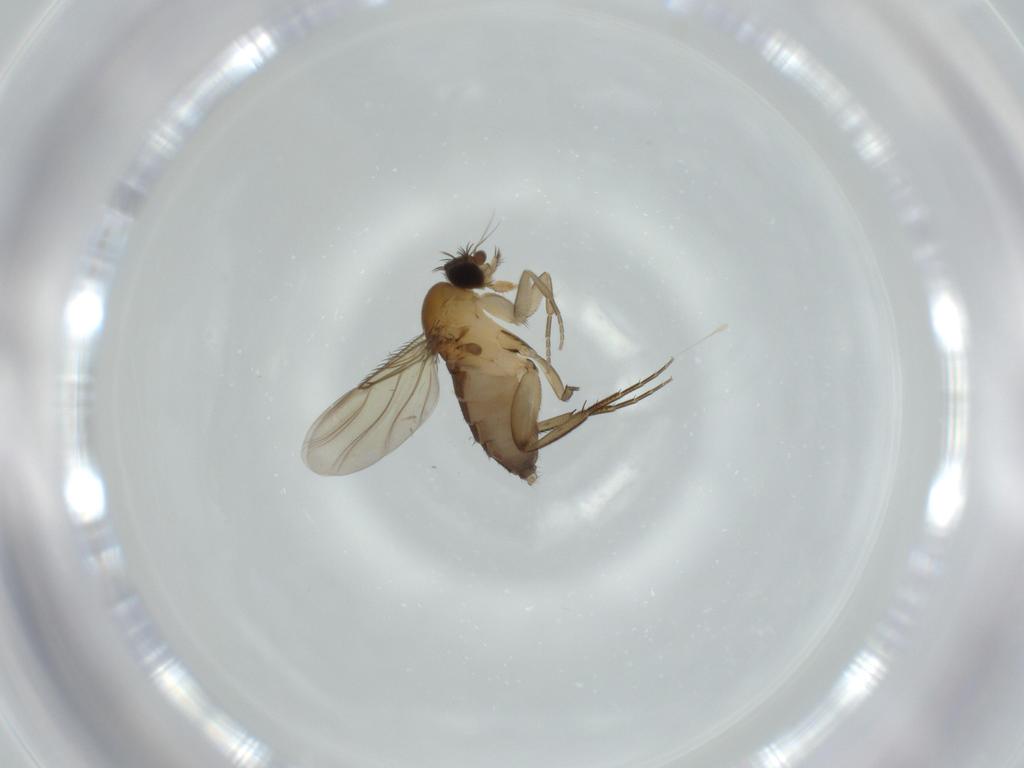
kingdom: Animalia
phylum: Arthropoda
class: Insecta
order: Diptera
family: Phoridae
